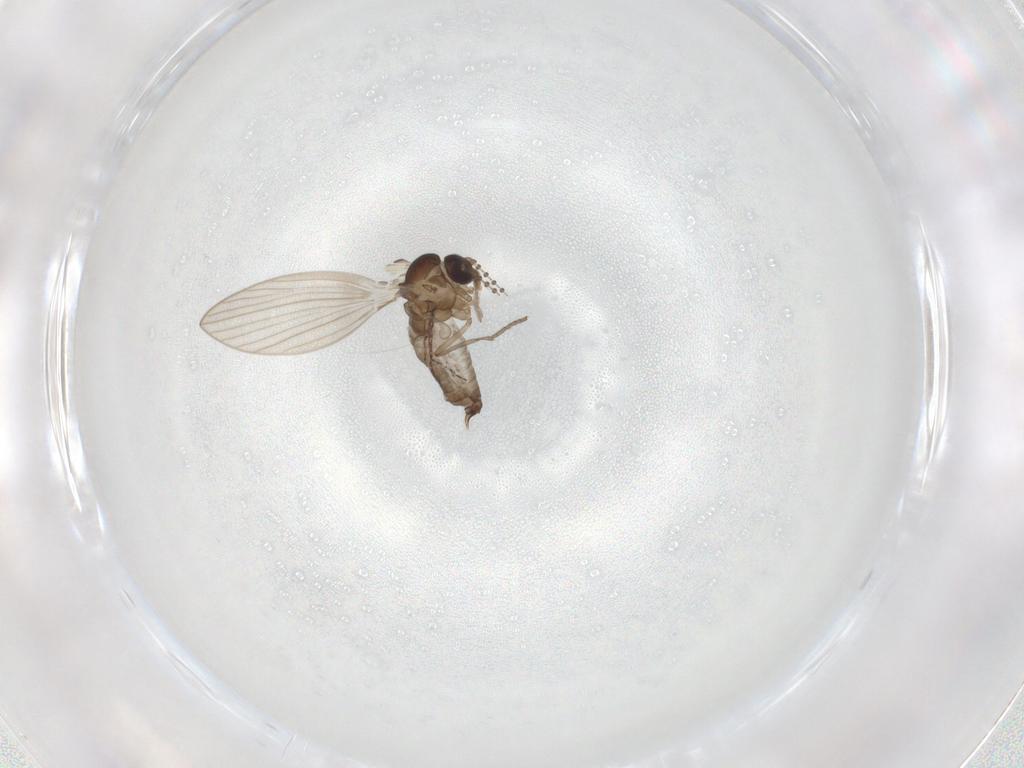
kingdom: Animalia
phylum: Arthropoda
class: Insecta
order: Diptera
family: Psychodidae
